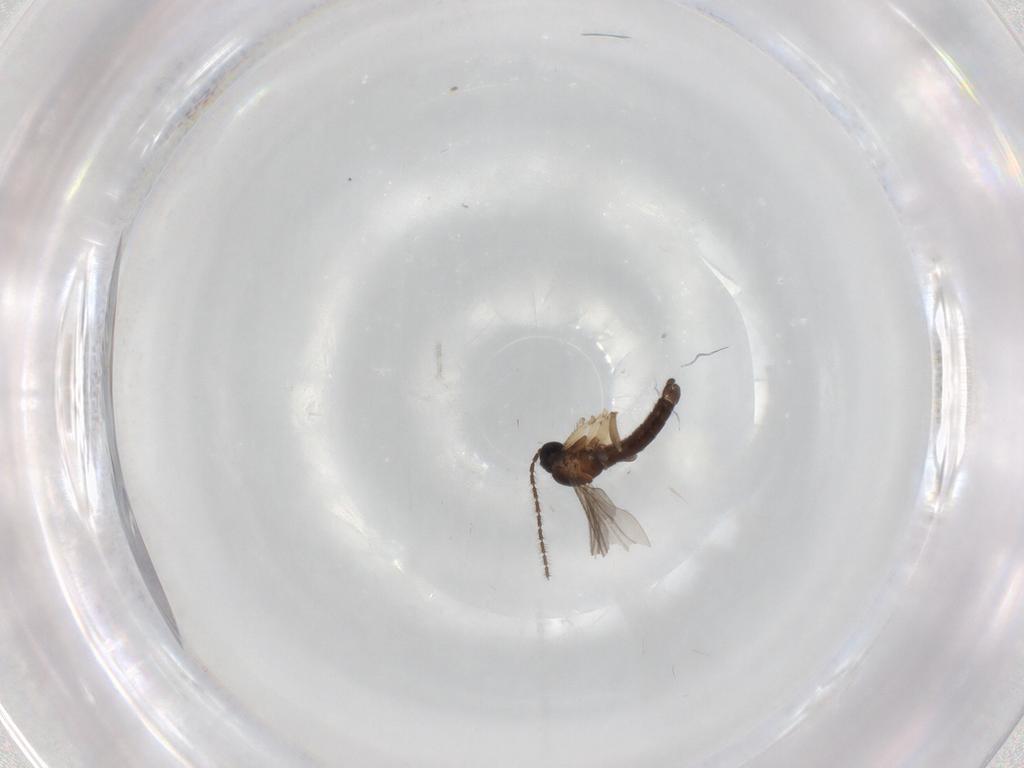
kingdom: Animalia
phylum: Arthropoda
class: Insecta
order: Diptera
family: Sciaridae
